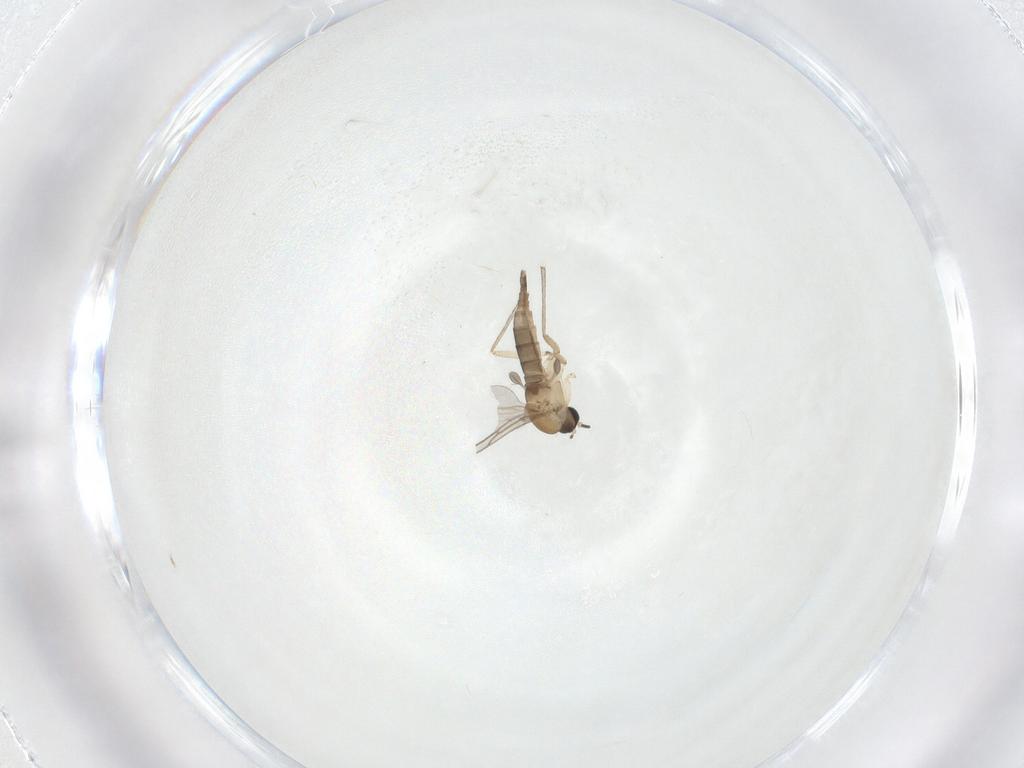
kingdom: Animalia
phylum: Arthropoda
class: Insecta
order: Diptera
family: Sciaridae
